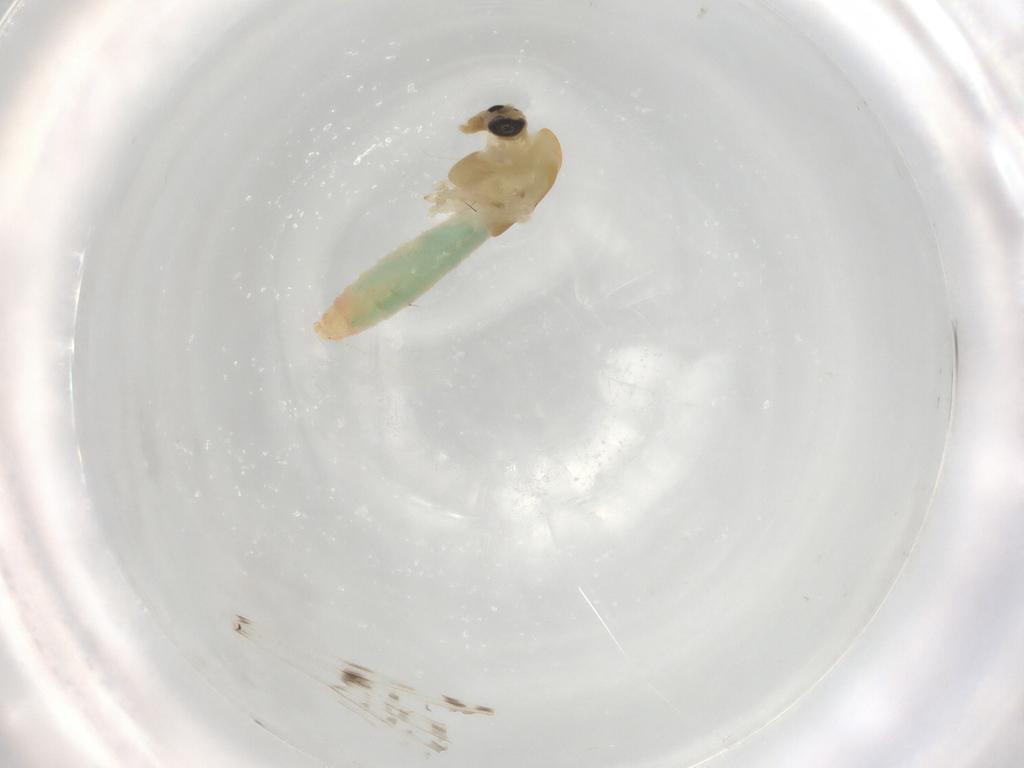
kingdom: Animalia
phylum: Arthropoda
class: Insecta
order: Diptera
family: Chironomidae
